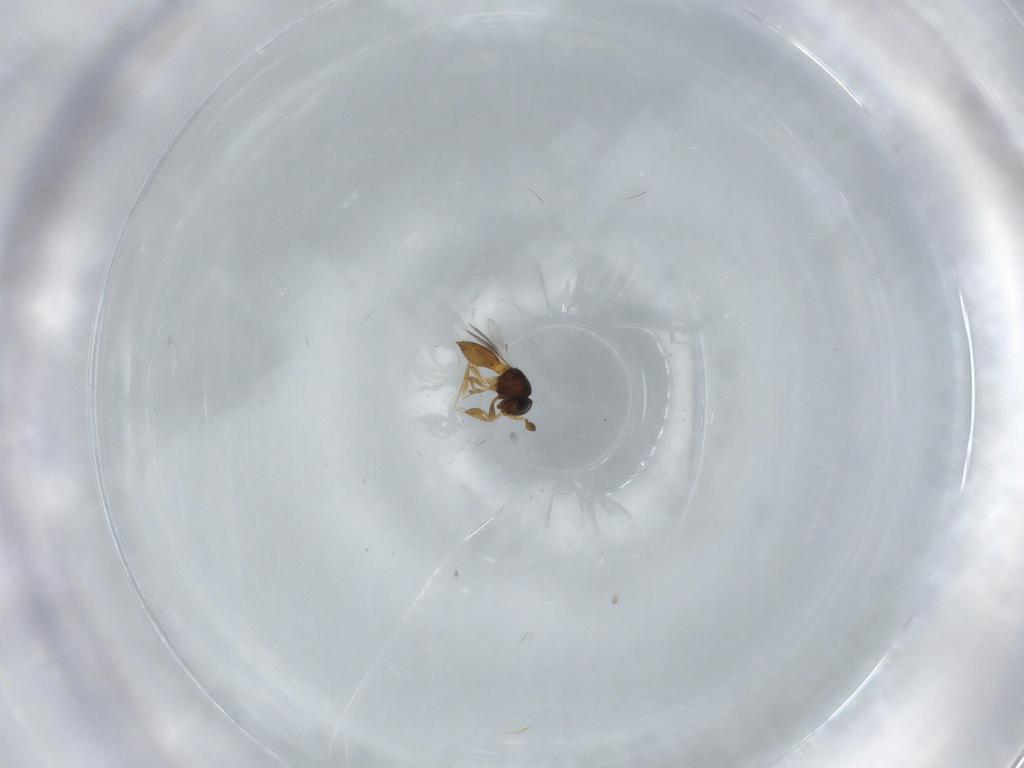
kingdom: Animalia
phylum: Arthropoda
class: Insecta
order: Hymenoptera
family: Scelionidae
